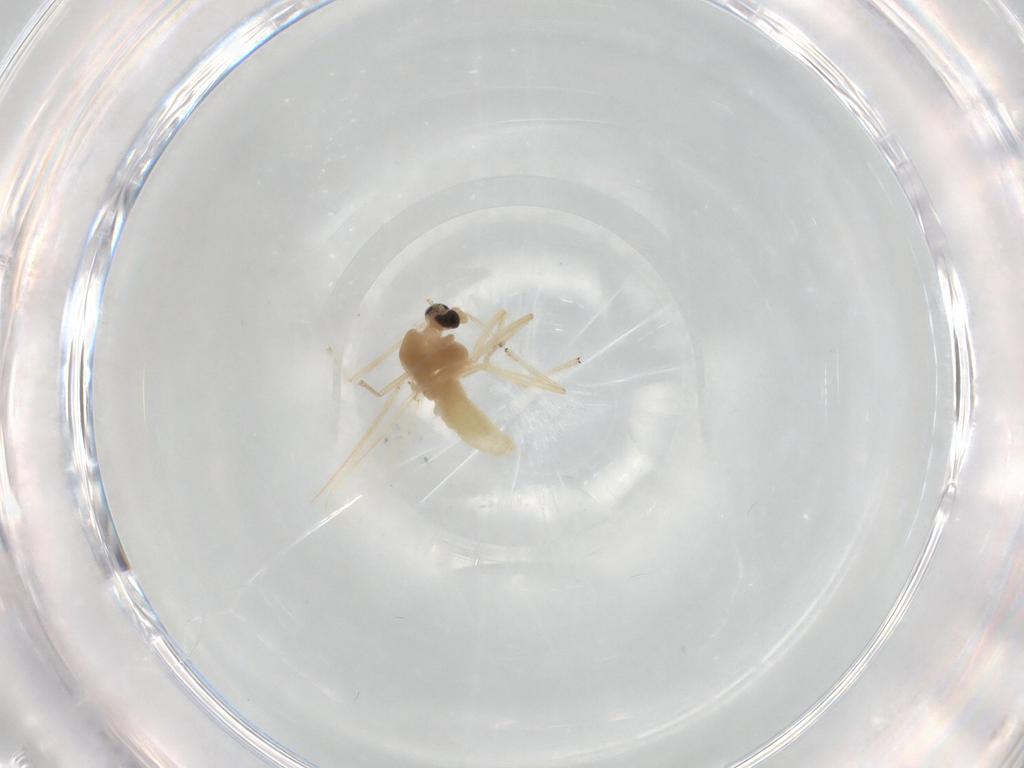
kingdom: Animalia
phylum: Arthropoda
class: Insecta
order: Diptera
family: Chironomidae
